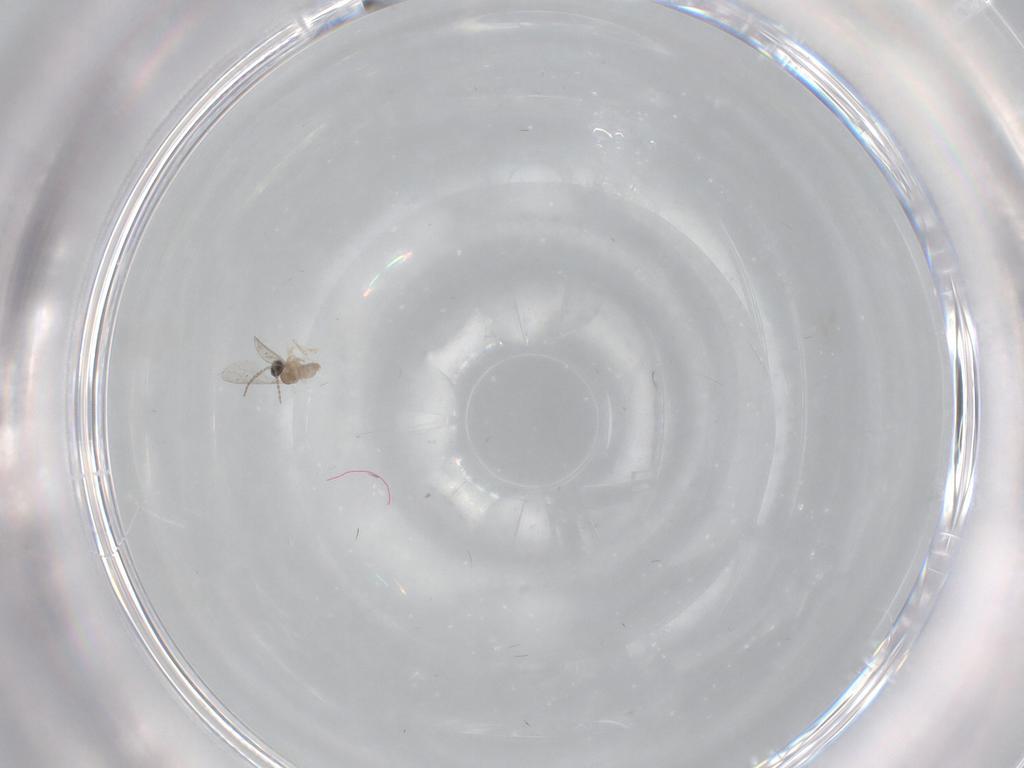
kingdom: Animalia
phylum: Arthropoda
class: Insecta
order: Diptera
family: Cecidomyiidae
